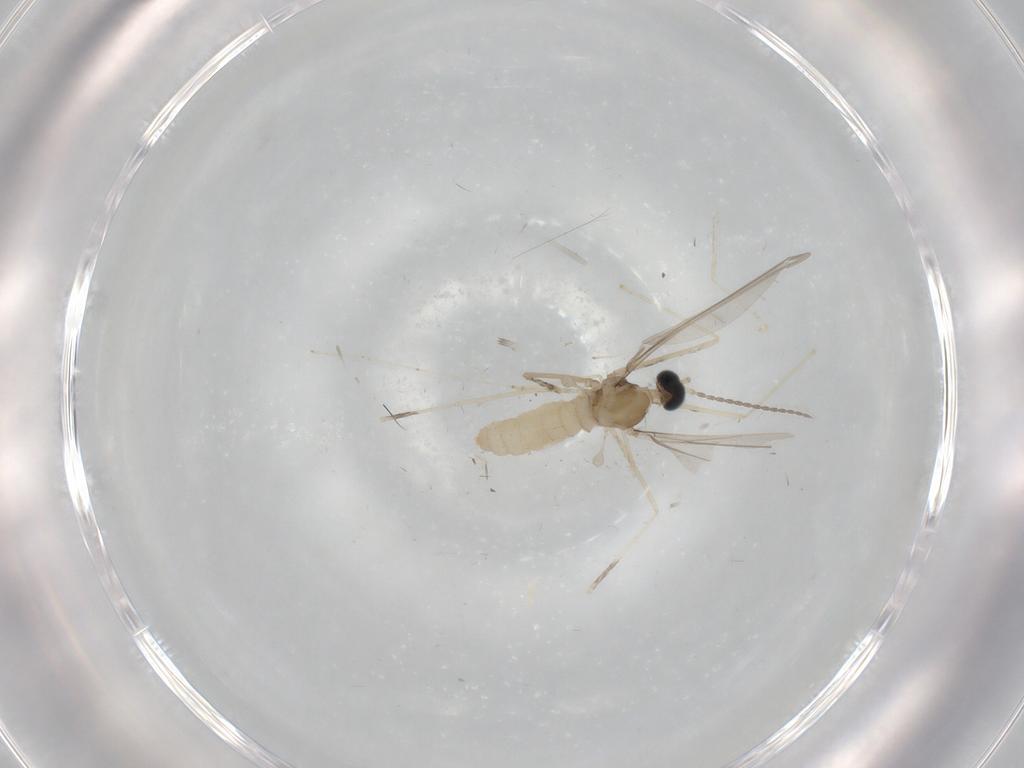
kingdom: Animalia
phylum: Arthropoda
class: Insecta
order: Diptera
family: Cecidomyiidae
